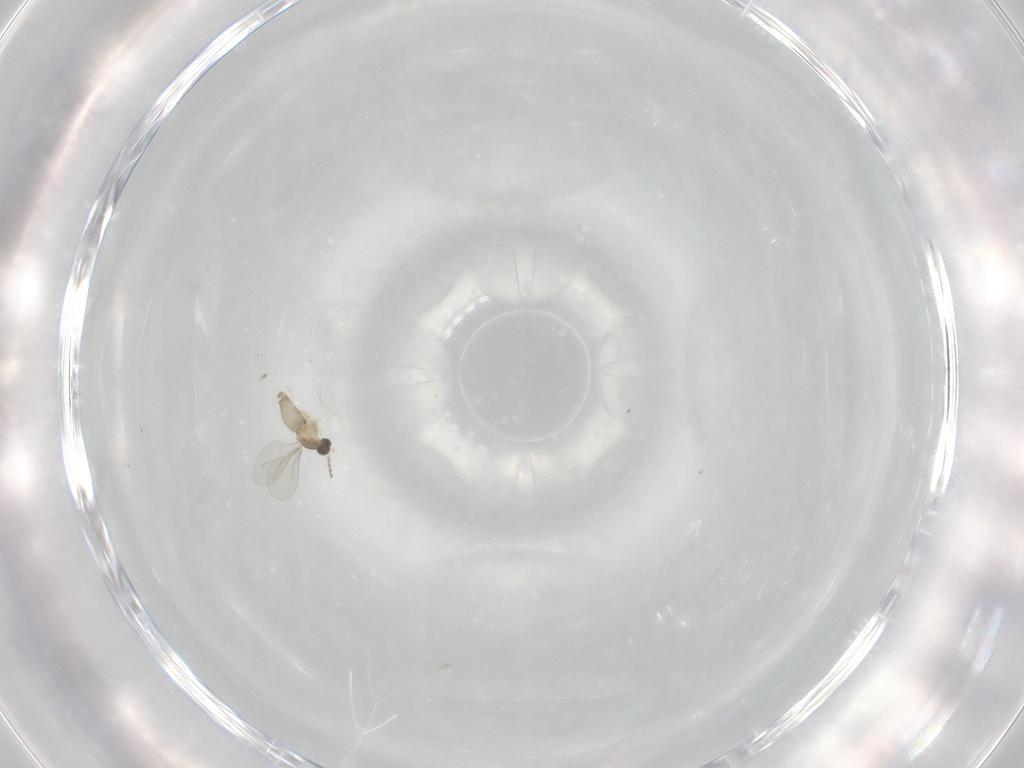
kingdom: Animalia
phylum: Arthropoda
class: Insecta
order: Diptera
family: Cecidomyiidae
